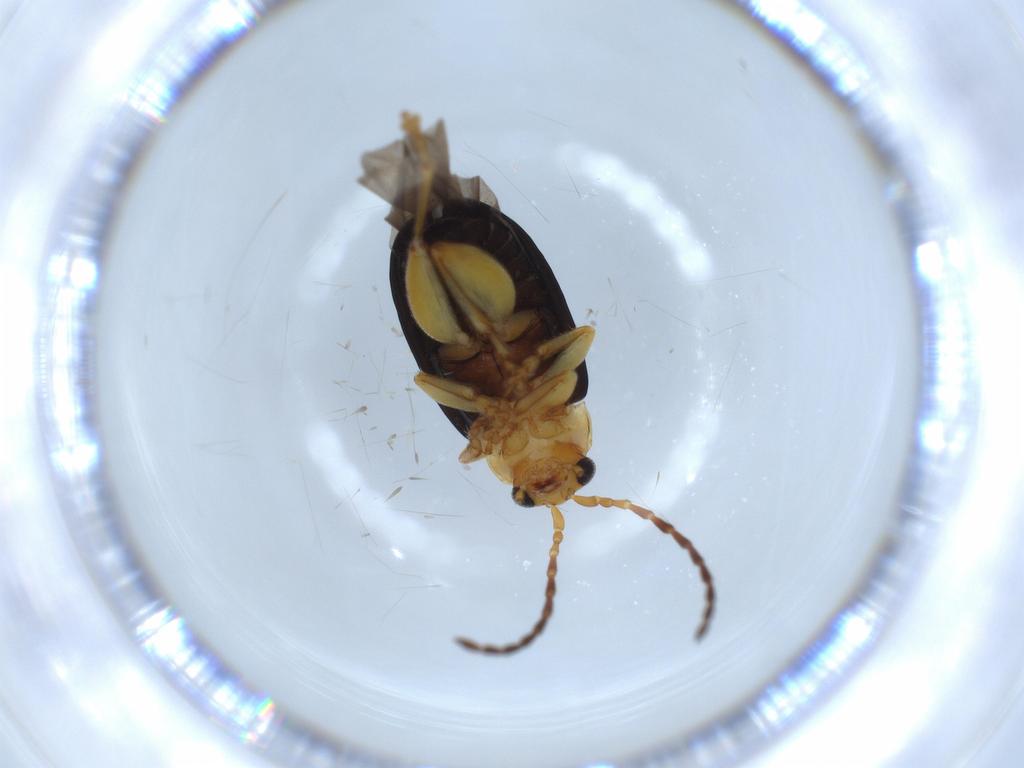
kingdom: Animalia
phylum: Arthropoda
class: Insecta
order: Coleoptera
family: Chrysomelidae
